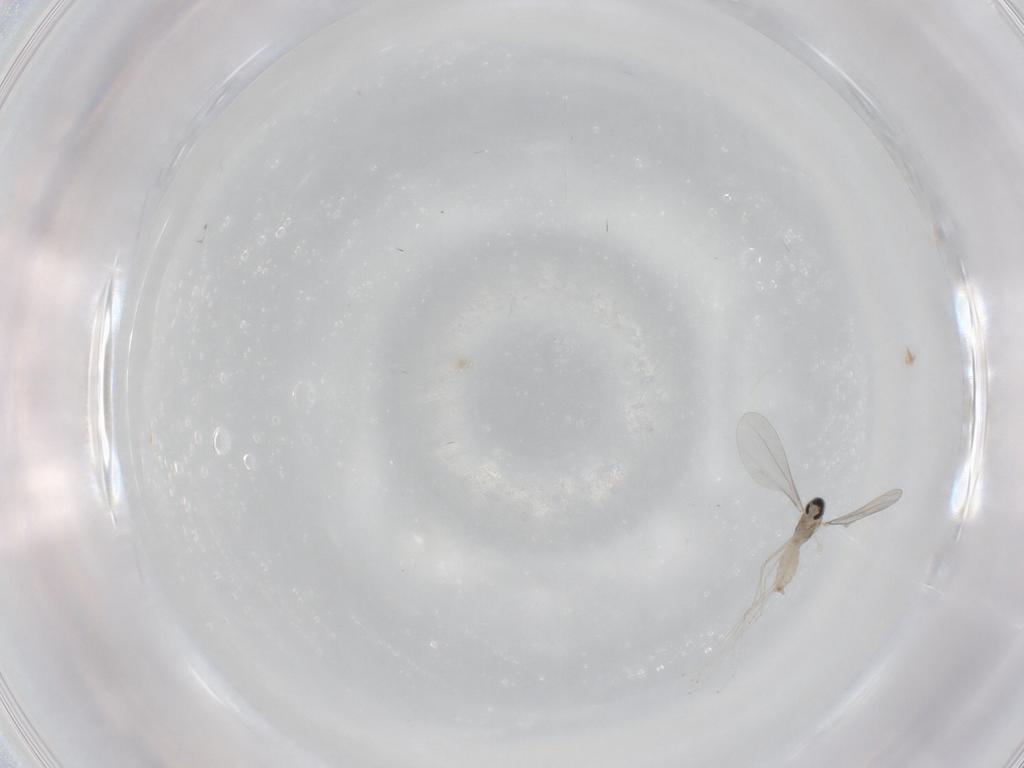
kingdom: Animalia
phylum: Arthropoda
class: Insecta
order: Diptera
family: Cecidomyiidae
